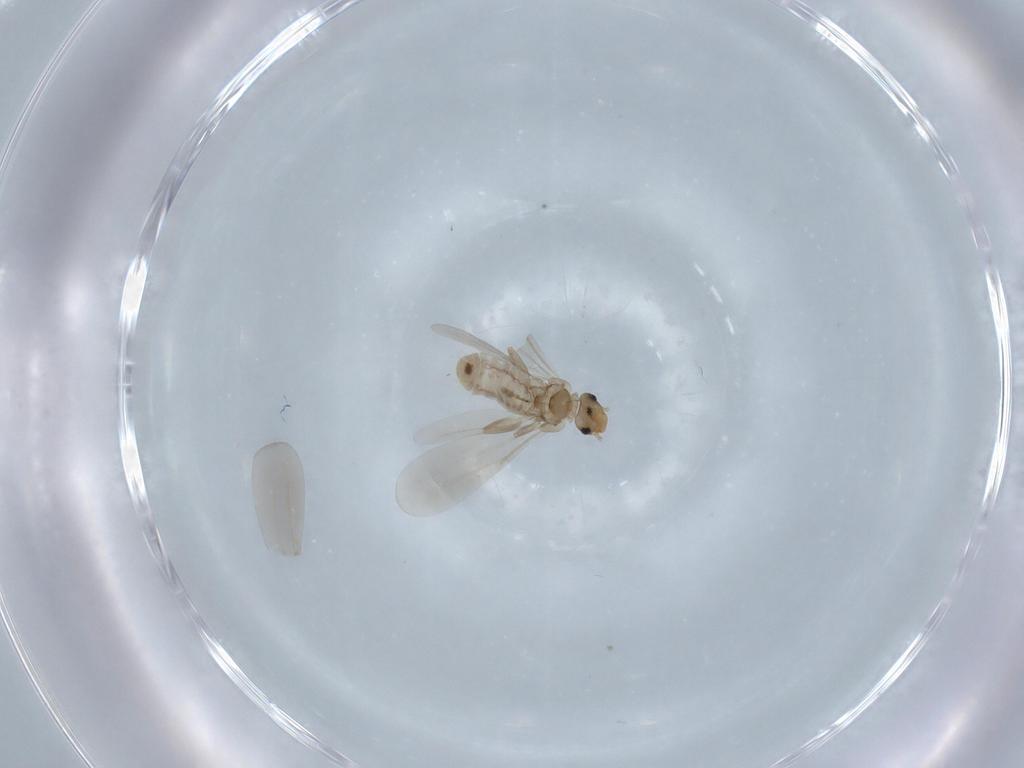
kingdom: Animalia
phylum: Arthropoda
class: Insecta
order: Psocodea
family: Liposcelididae
